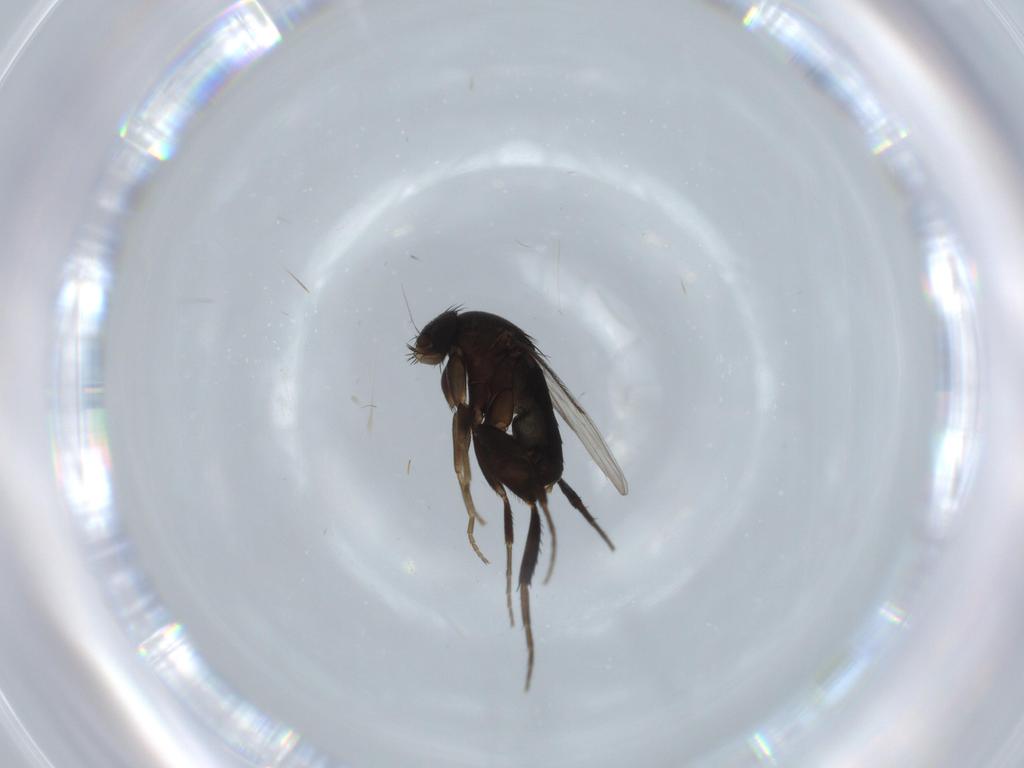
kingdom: Animalia
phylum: Arthropoda
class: Insecta
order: Diptera
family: Phoridae
